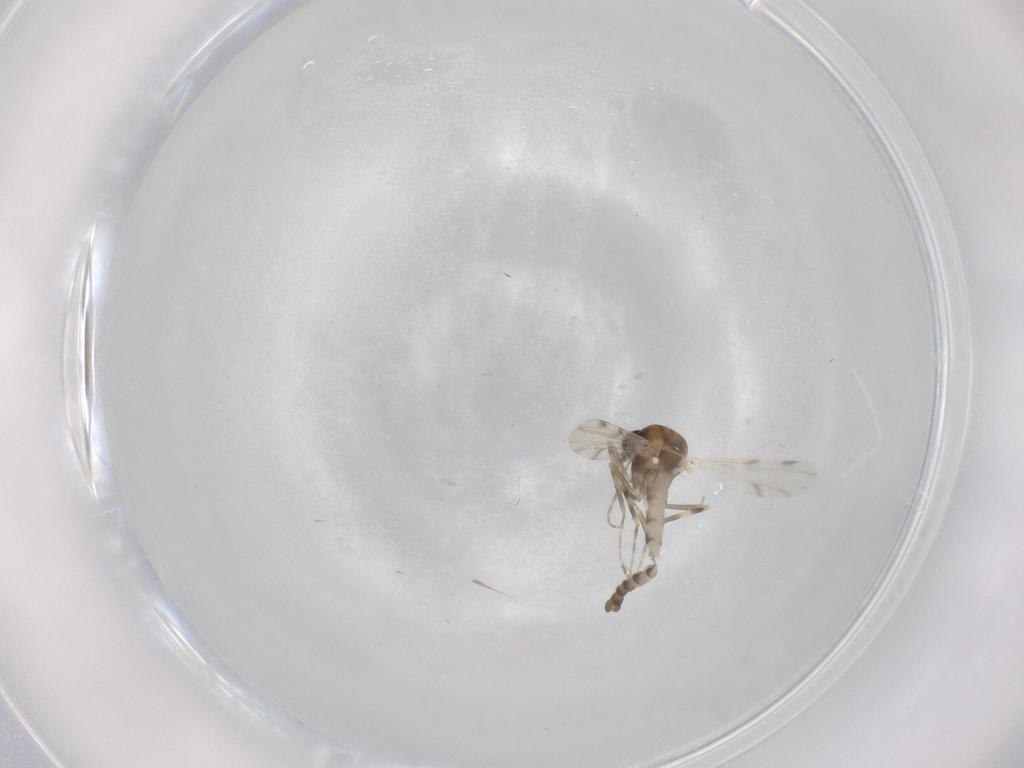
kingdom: Animalia
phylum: Arthropoda
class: Insecta
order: Diptera
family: Ceratopogonidae
